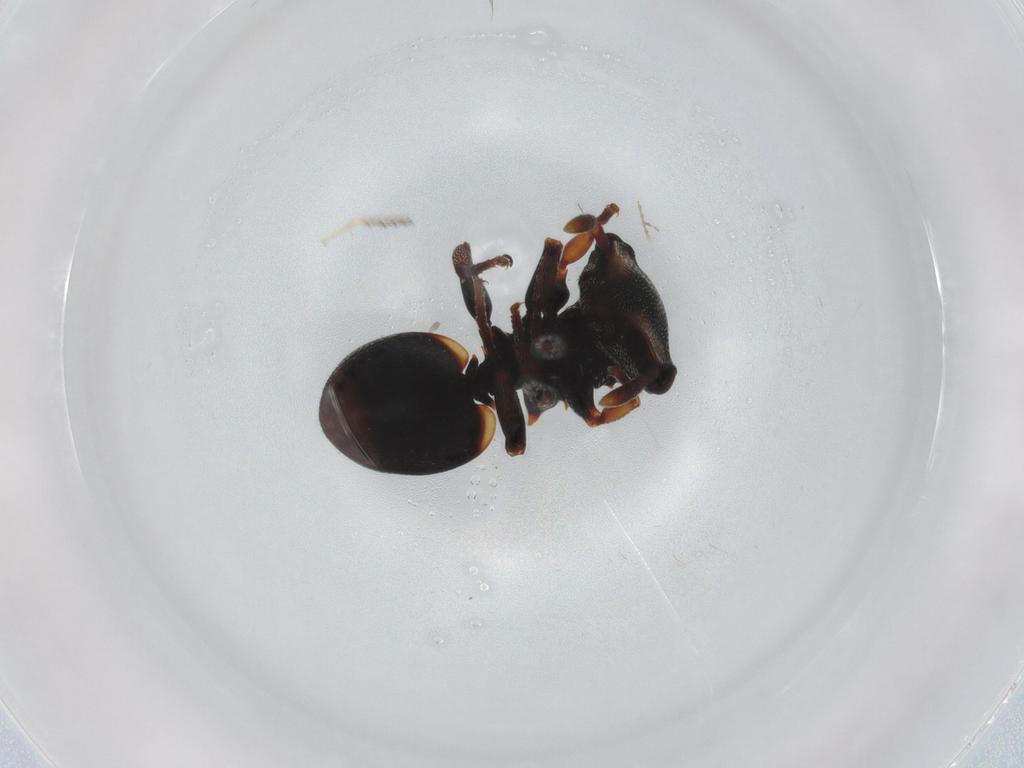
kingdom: Animalia
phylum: Arthropoda
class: Insecta
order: Hymenoptera
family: Formicidae
